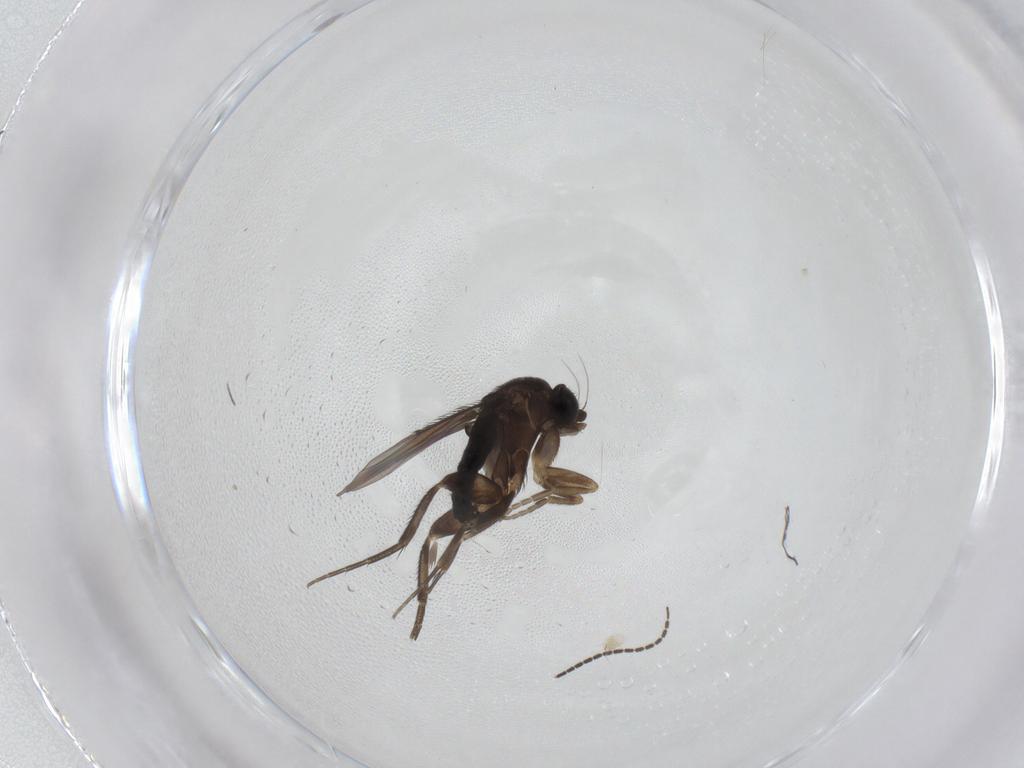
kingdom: Animalia
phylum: Arthropoda
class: Insecta
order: Diptera
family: Phoridae
